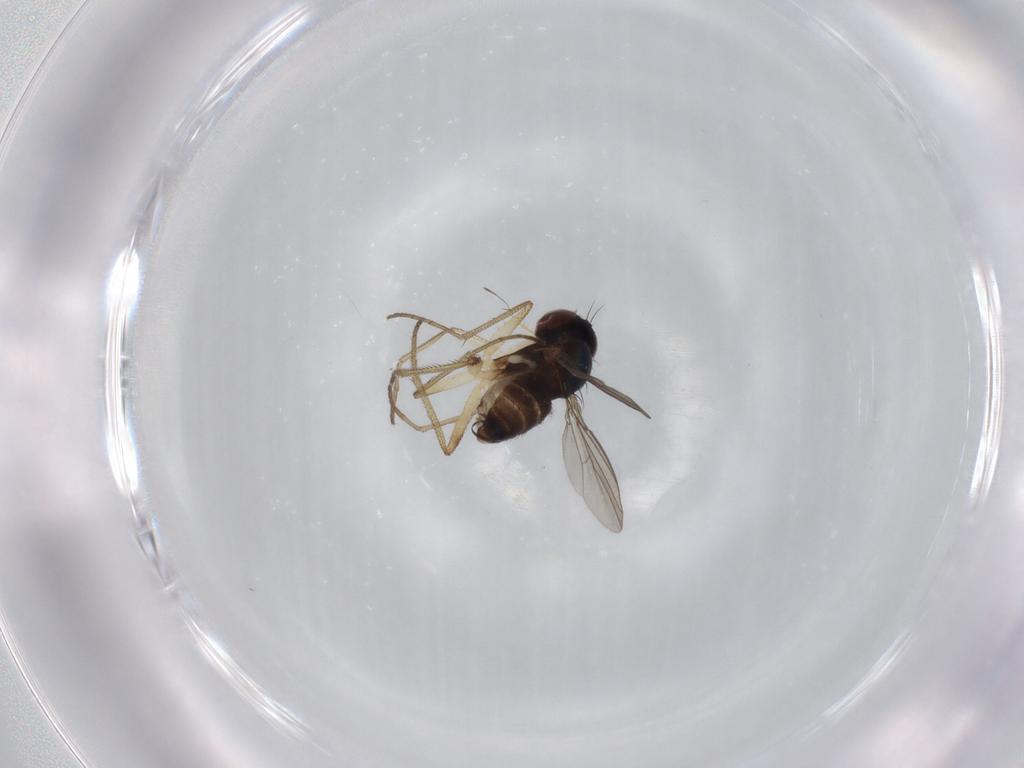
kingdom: Animalia
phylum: Arthropoda
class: Insecta
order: Diptera
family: Dolichopodidae
